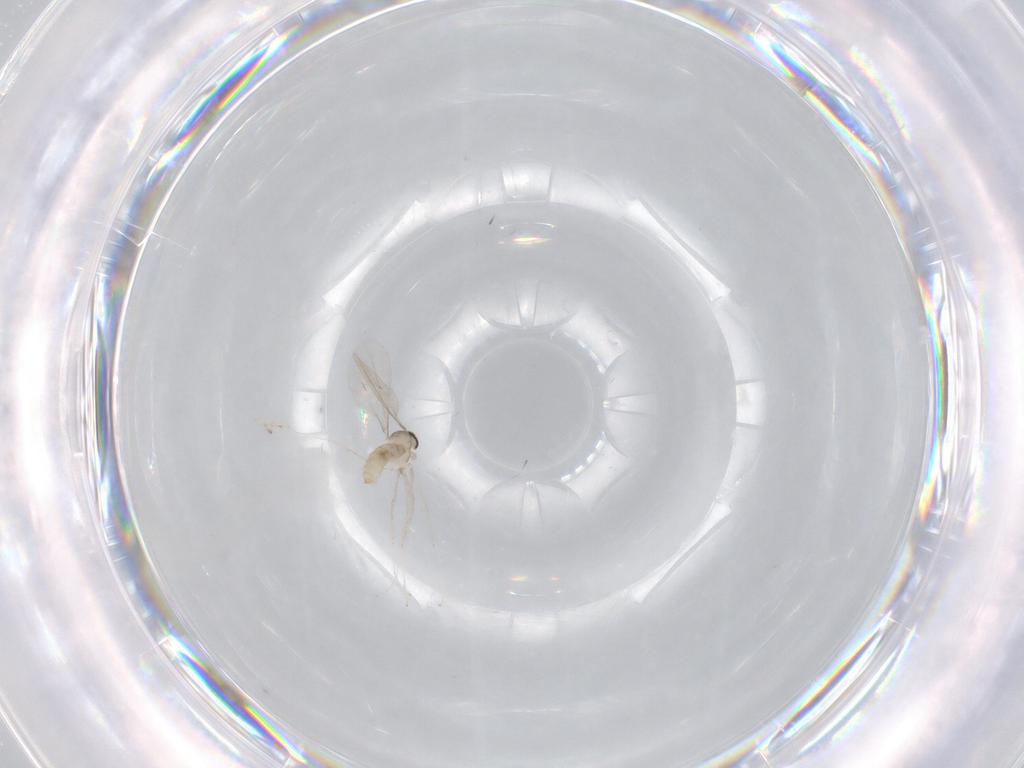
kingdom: Animalia
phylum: Arthropoda
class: Insecta
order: Diptera
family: Cecidomyiidae
